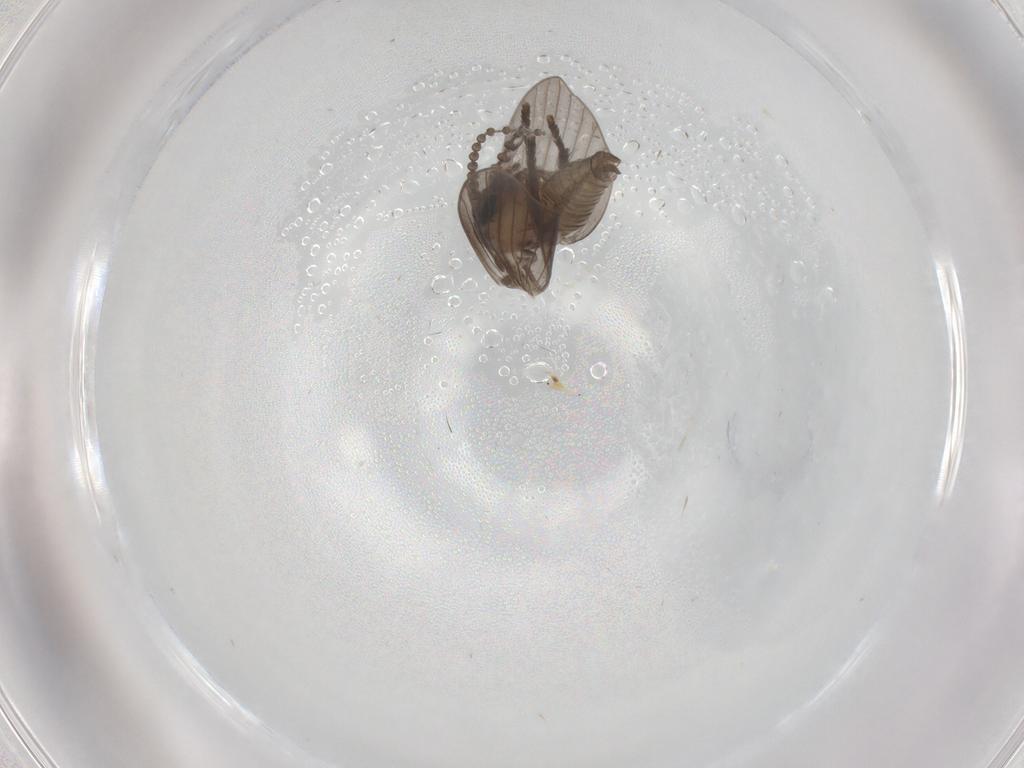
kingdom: Animalia
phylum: Arthropoda
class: Insecta
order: Diptera
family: Psychodidae
